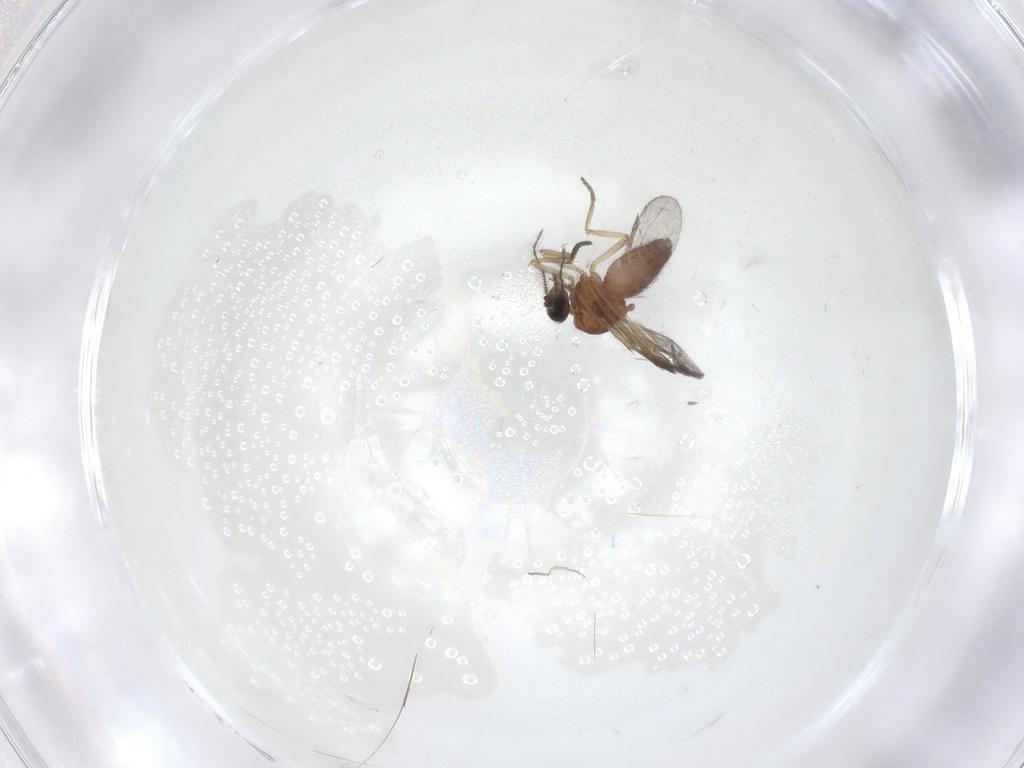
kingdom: Animalia
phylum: Arthropoda
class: Insecta
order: Diptera
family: Ceratopogonidae
